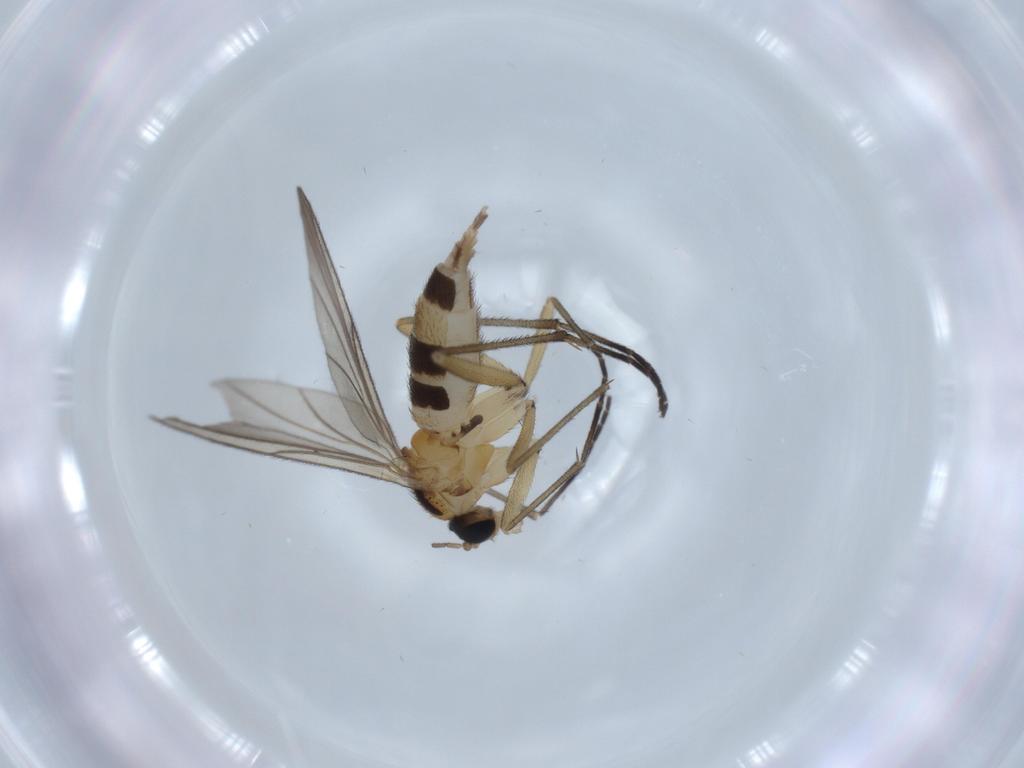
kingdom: Animalia
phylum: Arthropoda
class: Insecta
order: Diptera
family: Sciaridae
